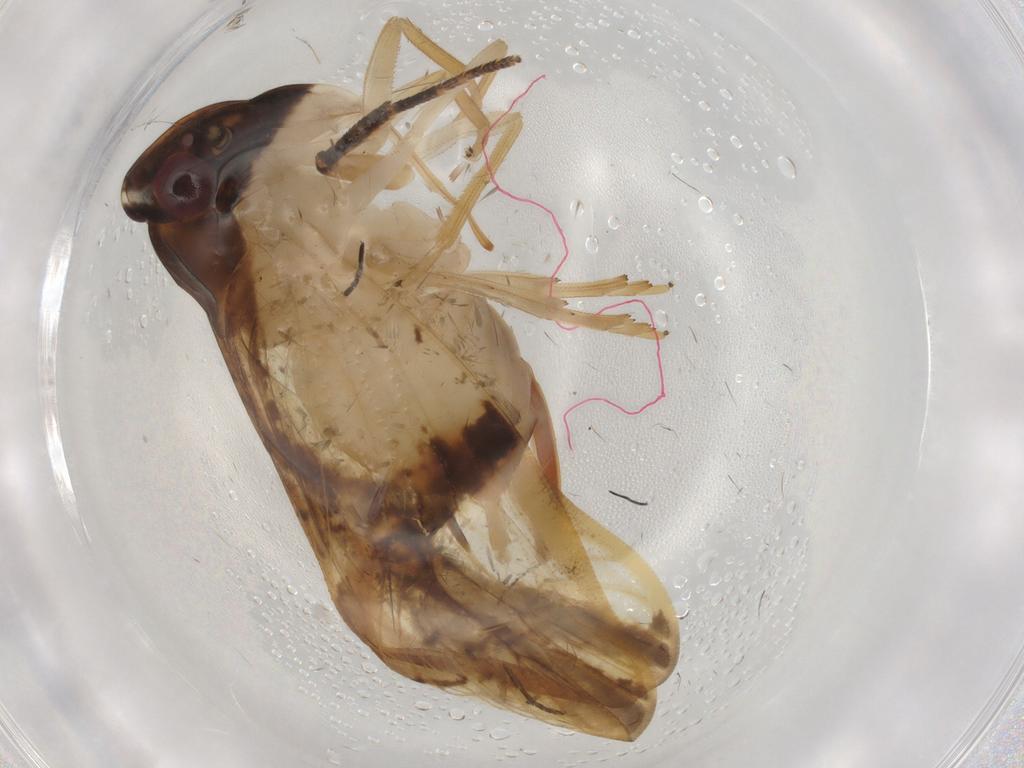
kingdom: Animalia
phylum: Arthropoda
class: Insecta
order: Hemiptera
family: Cixiidae
